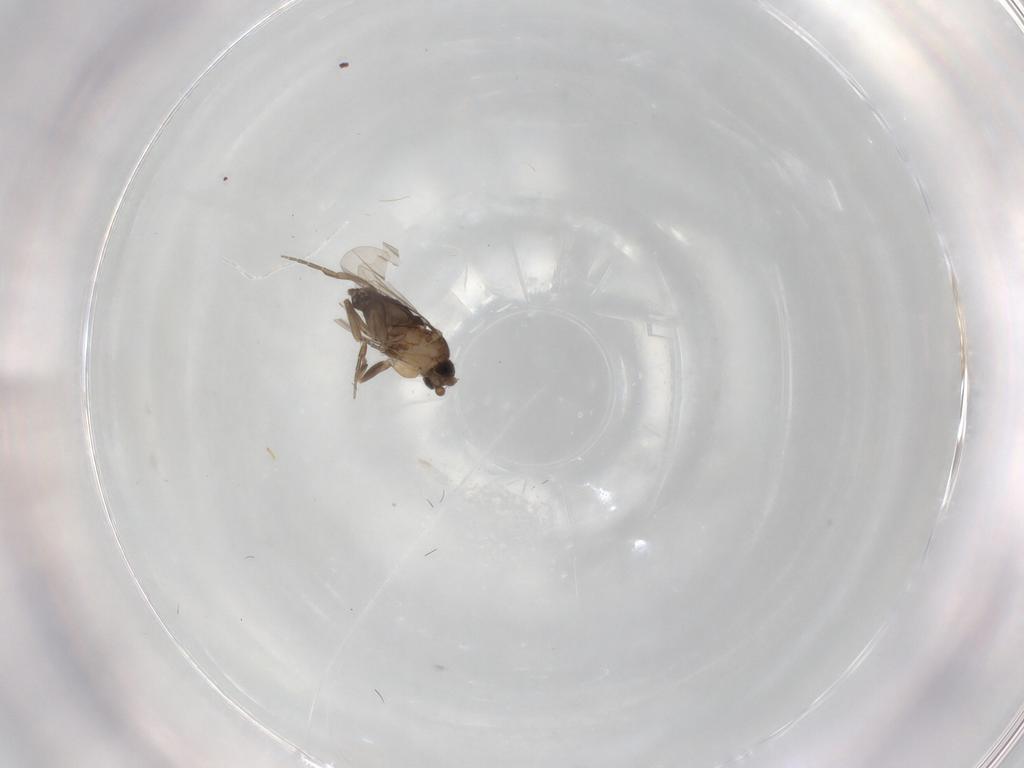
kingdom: Animalia
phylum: Arthropoda
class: Insecta
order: Diptera
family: Phoridae
